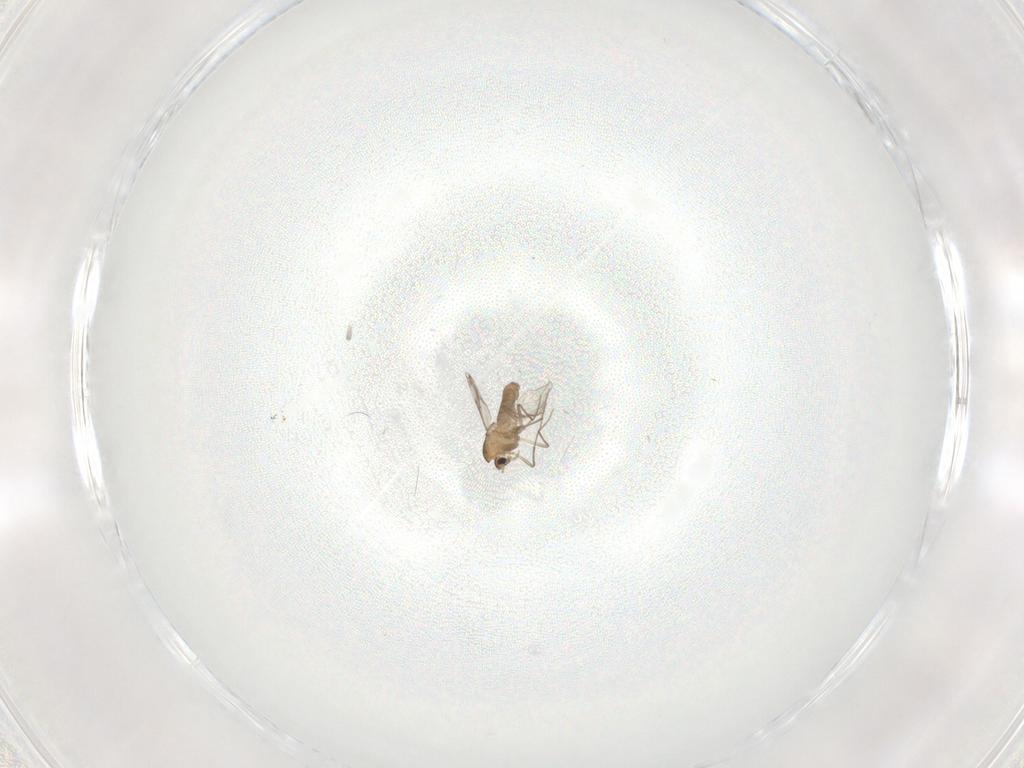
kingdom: Animalia
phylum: Arthropoda
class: Insecta
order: Diptera
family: Chironomidae
